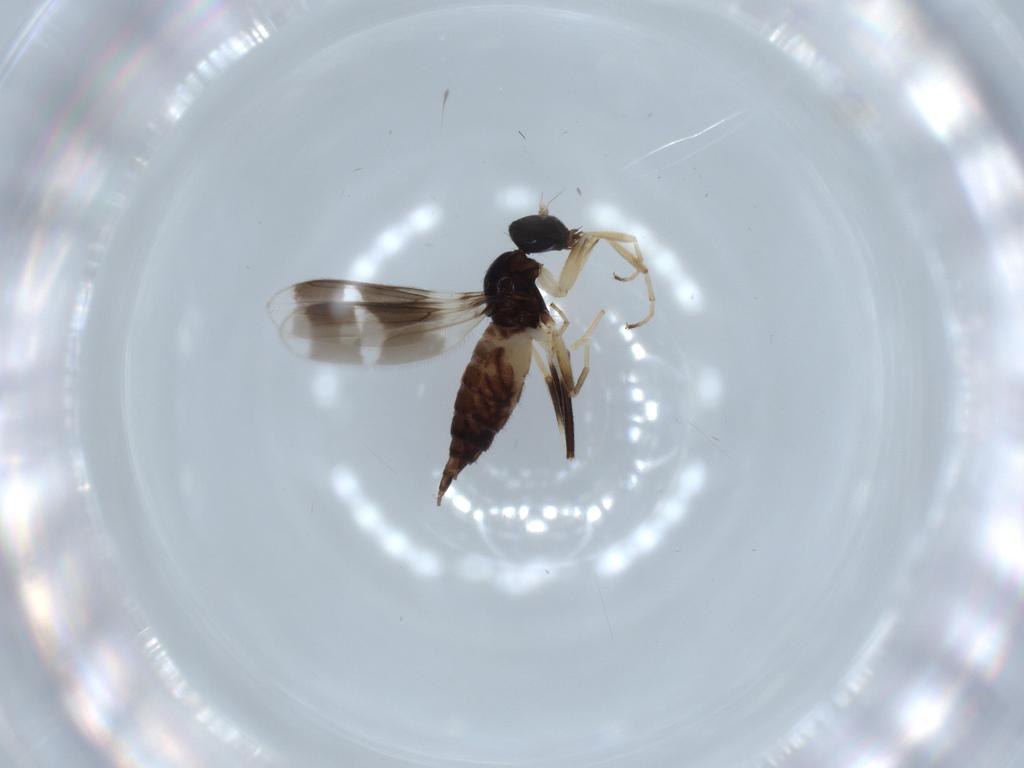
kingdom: Animalia
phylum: Arthropoda
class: Insecta
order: Diptera
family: Hybotidae
